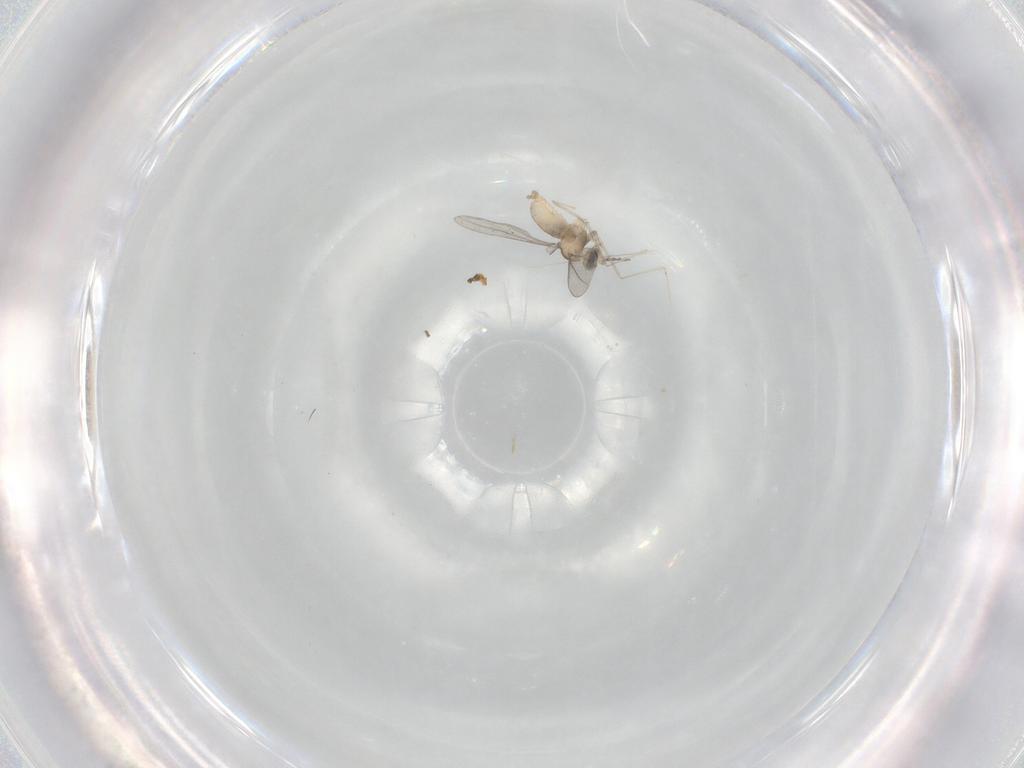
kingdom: Animalia
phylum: Arthropoda
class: Insecta
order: Diptera
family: Cecidomyiidae
